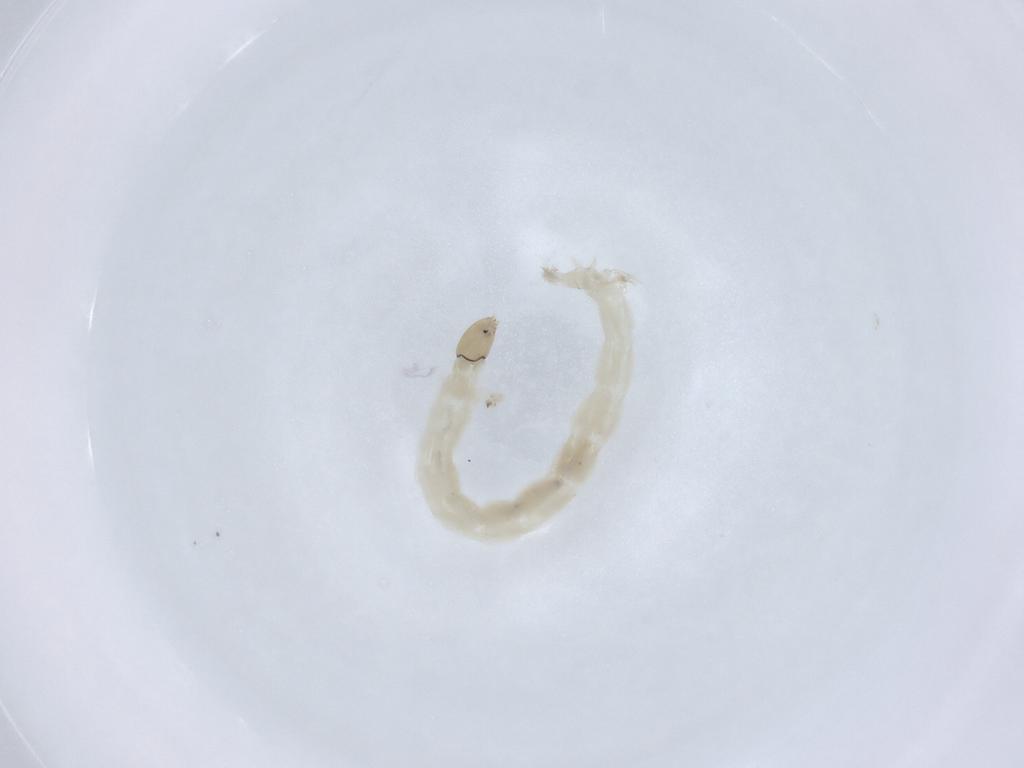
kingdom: Animalia
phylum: Arthropoda
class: Insecta
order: Diptera
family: Chironomidae
